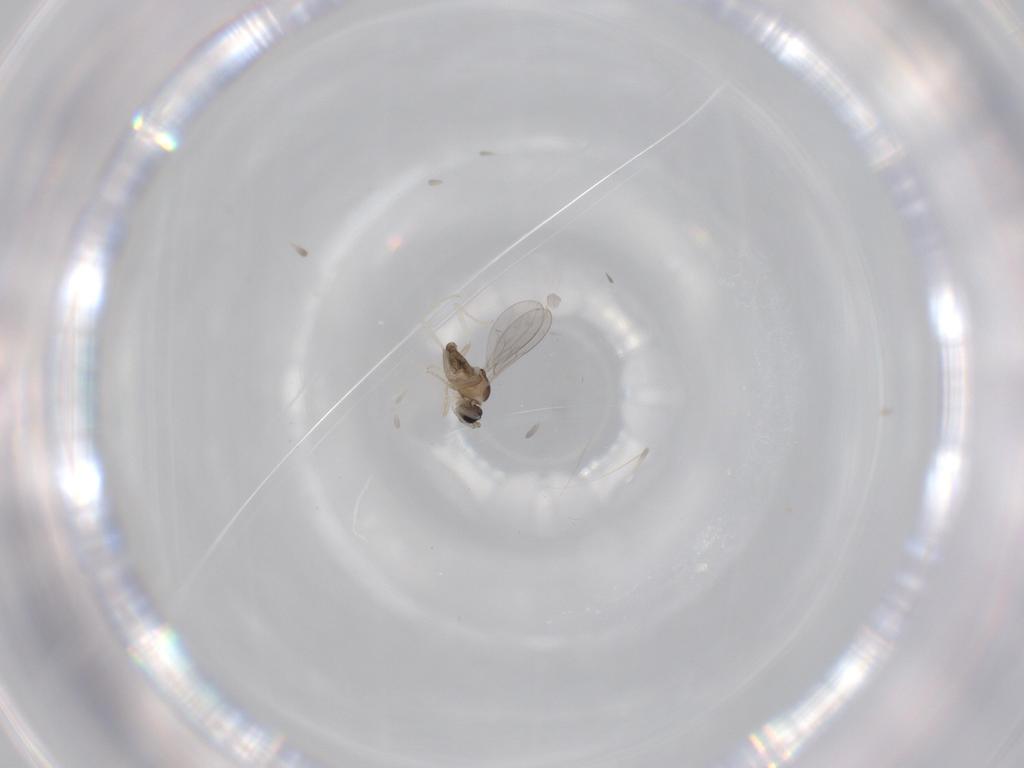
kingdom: Animalia
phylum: Arthropoda
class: Insecta
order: Diptera
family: Cecidomyiidae
